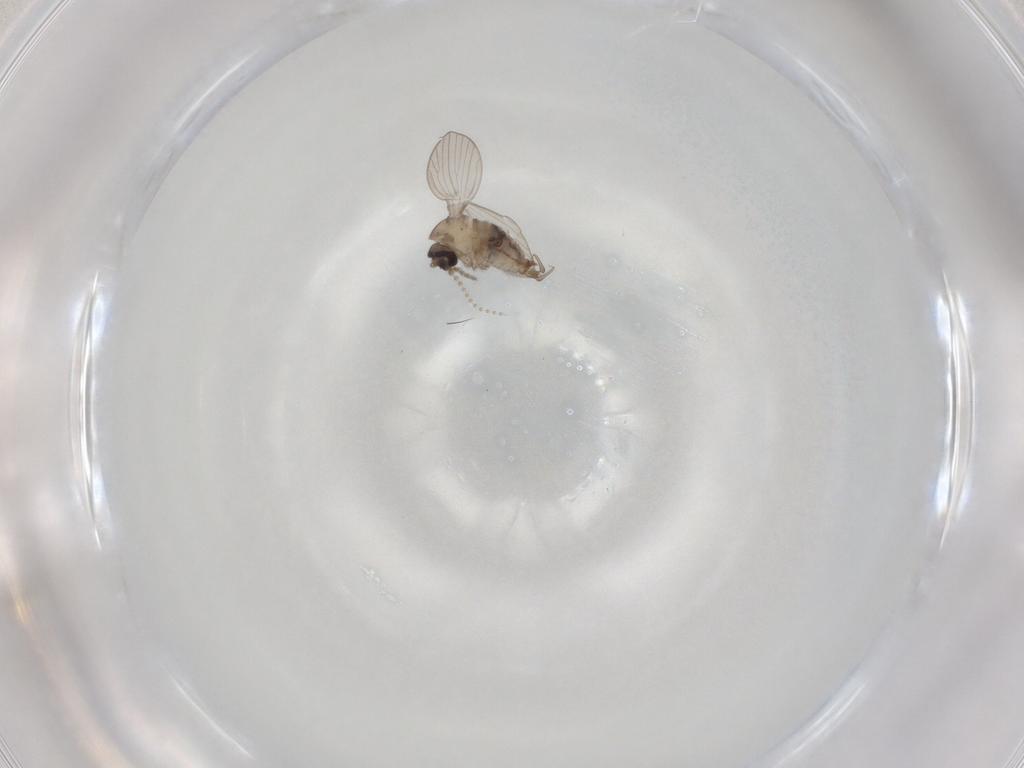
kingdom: Animalia
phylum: Arthropoda
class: Insecta
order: Diptera
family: Psychodidae
